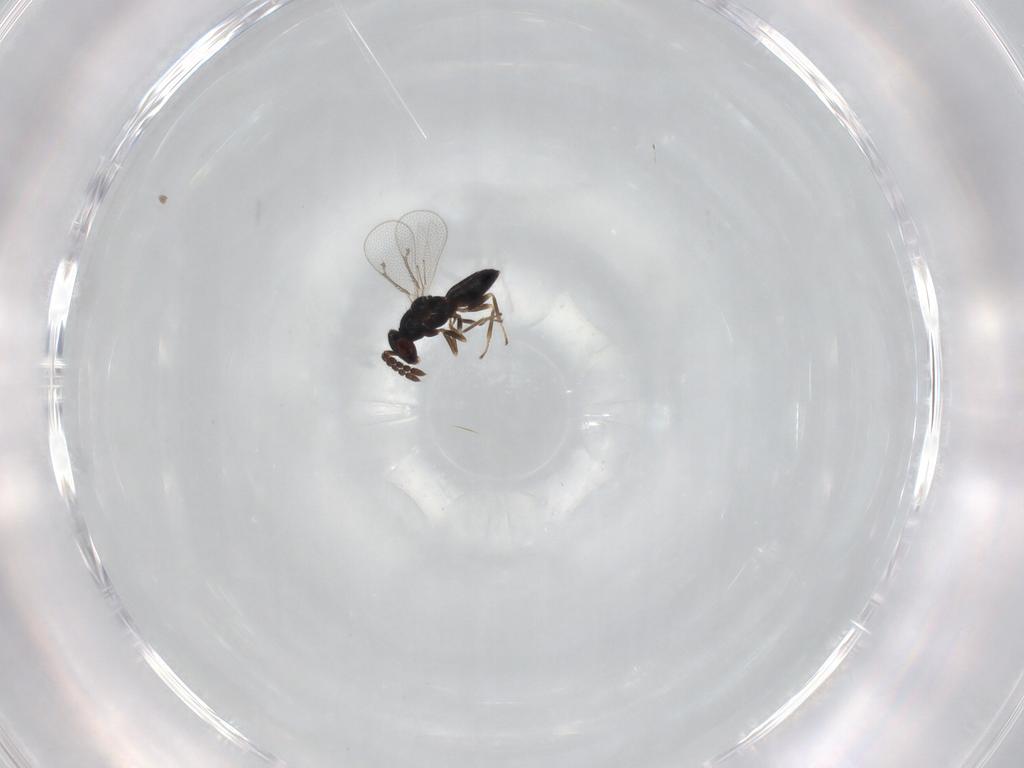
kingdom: Animalia
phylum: Arthropoda
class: Insecta
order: Hymenoptera
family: Eulophidae
